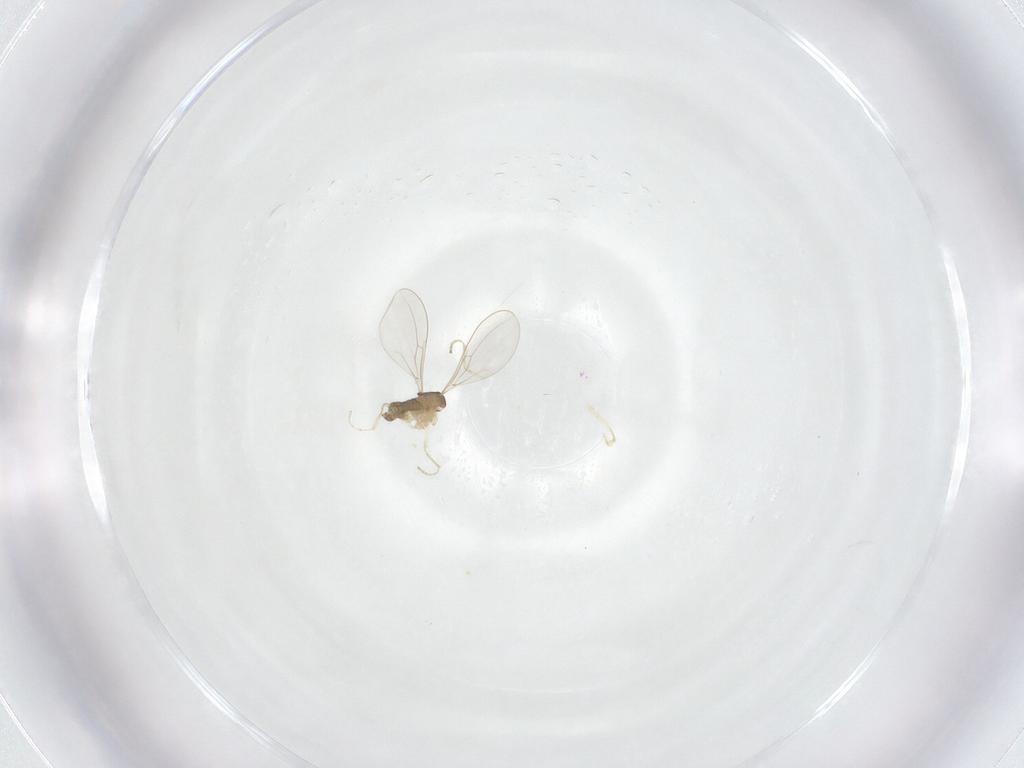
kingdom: Animalia
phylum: Arthropoda
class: Insecta
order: Diptera
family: Cecidomyiidae
